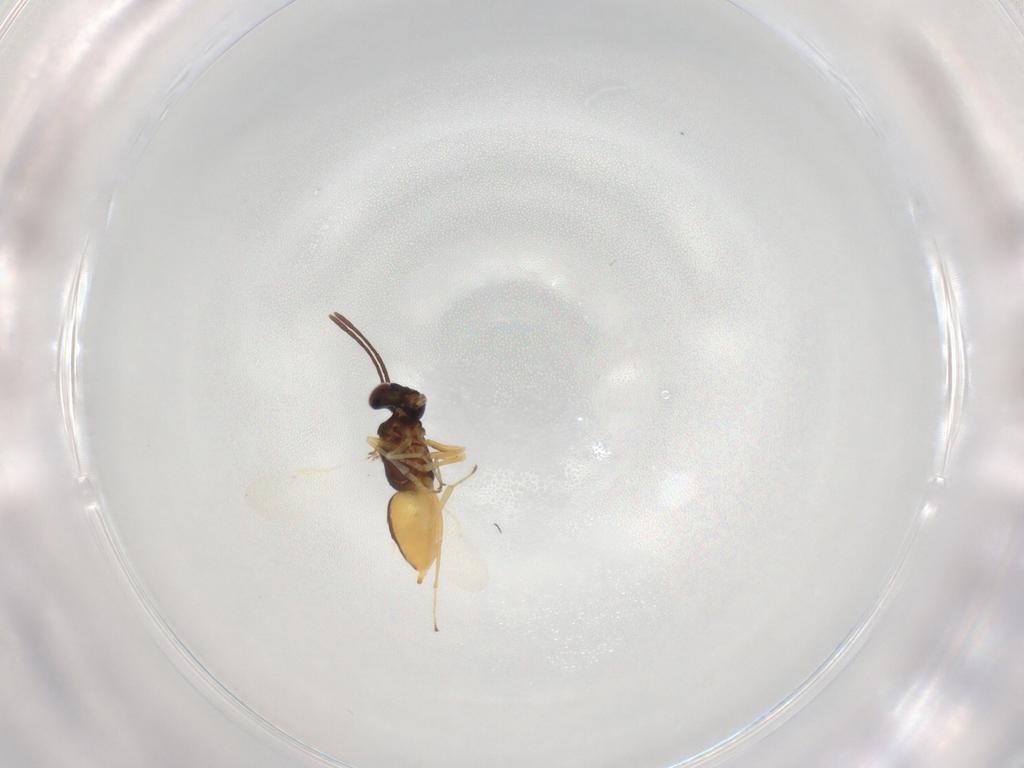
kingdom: Animalia
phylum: Arthropoda
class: Insecta
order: Hymenoptera
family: Encyrtidae
